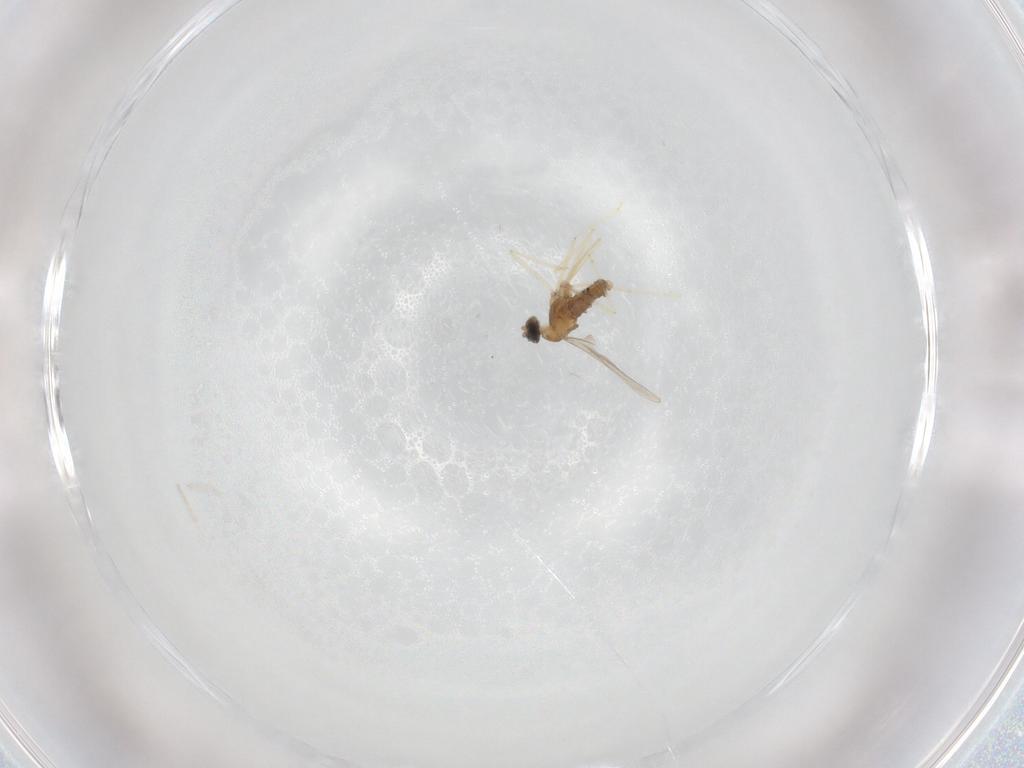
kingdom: Animalia
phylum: Arthropoda
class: Insecta
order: Diptera
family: Cecidomyiidae
